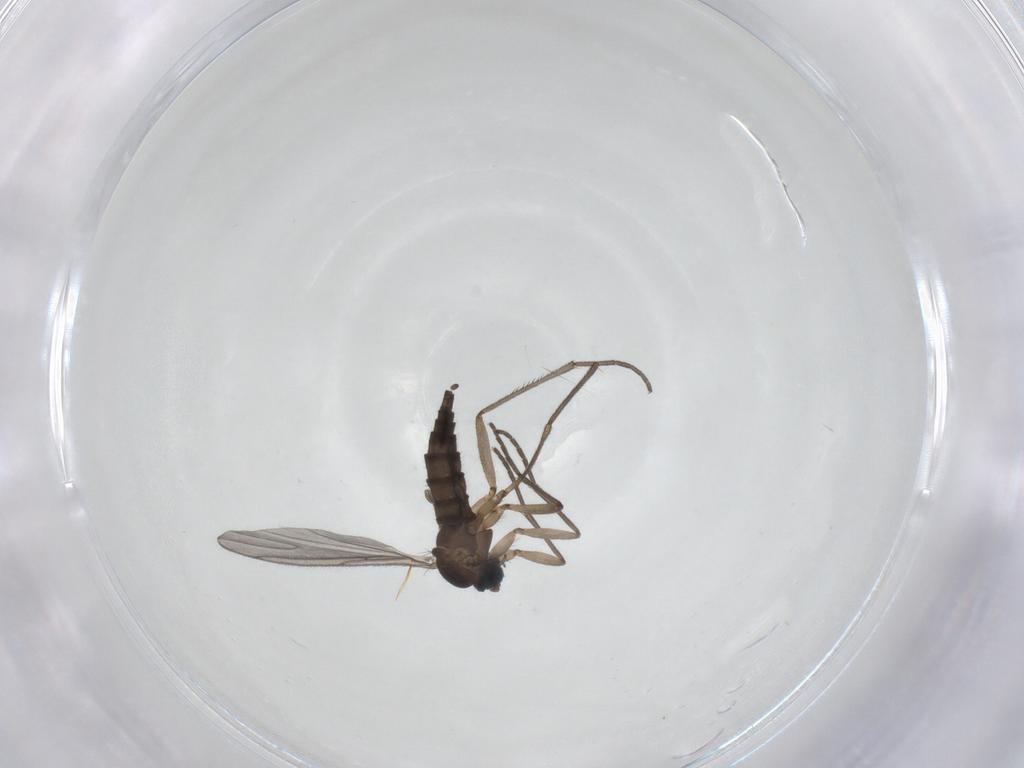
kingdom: Animalia
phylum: Arthropoda
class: Insecta
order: Diptera
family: Sciaridae
